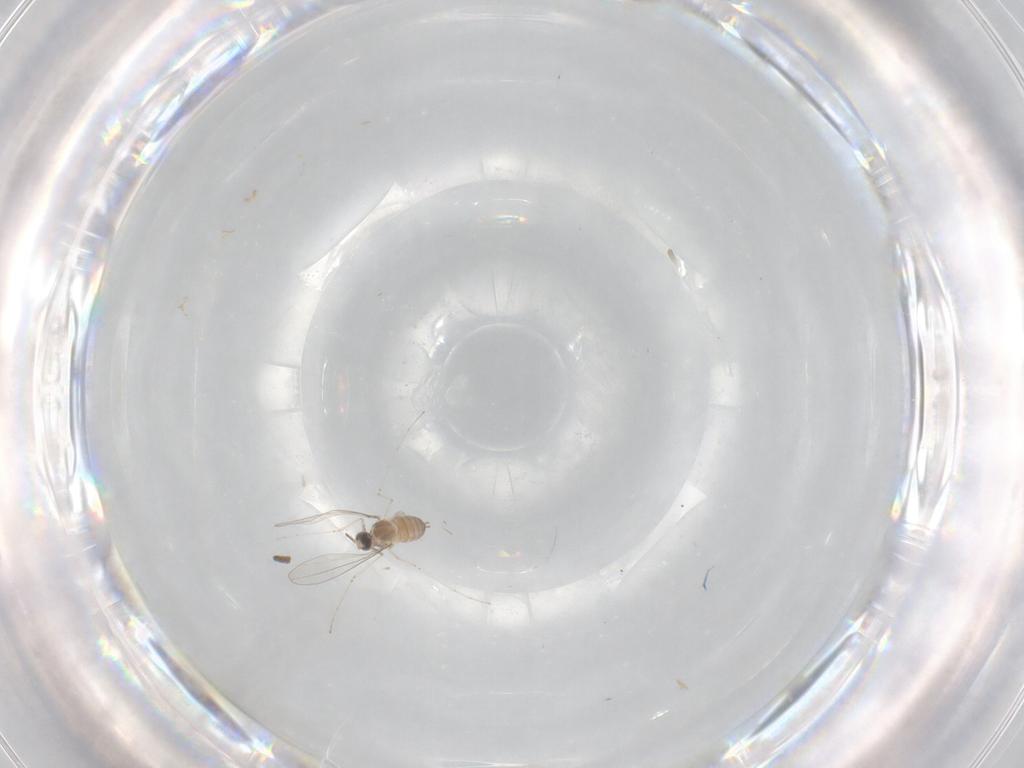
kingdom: Animalia
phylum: Arthropoda
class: Insecta
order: Diptera
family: Cecidomyiidae
